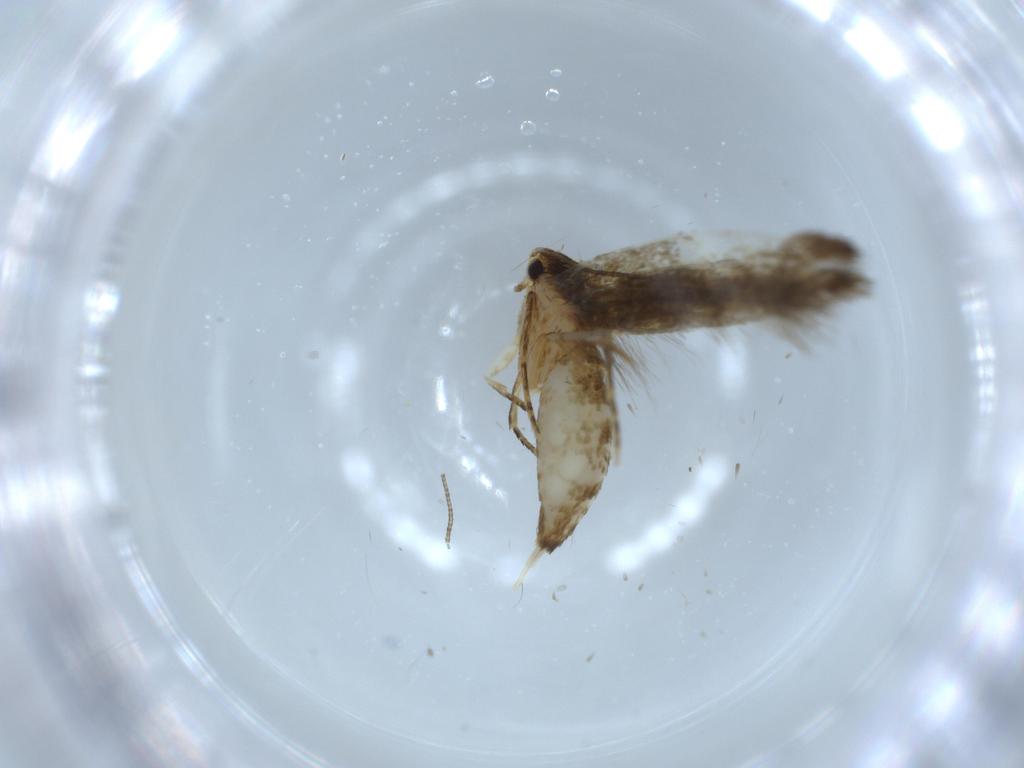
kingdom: Animalia
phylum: Arthropoda
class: Insecta
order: Lepidoptera
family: Tineidae
